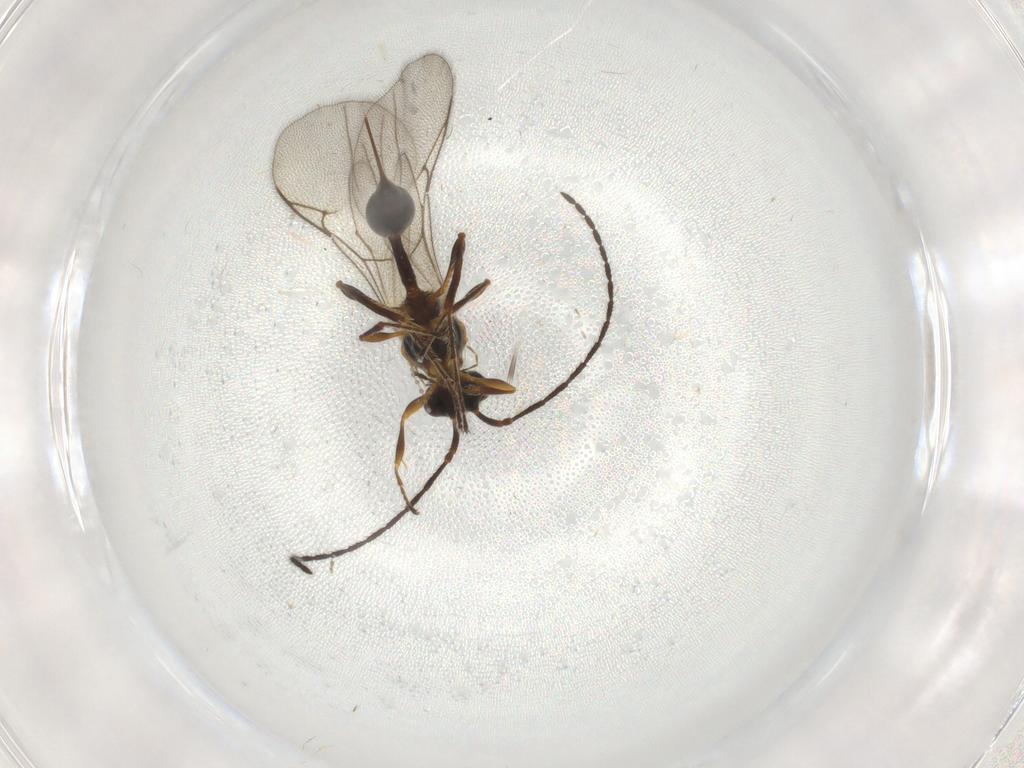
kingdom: Animalia
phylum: Arthropoda
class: Insecta
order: Hymenoptera
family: Diapriidae
